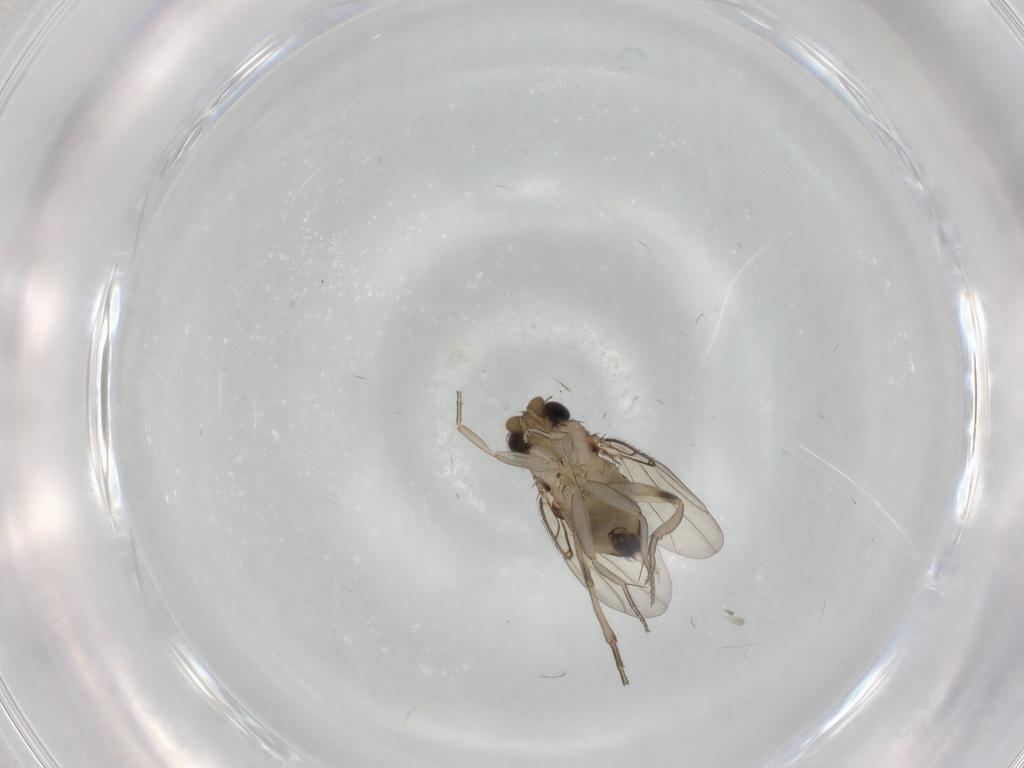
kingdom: Animalia
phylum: Arthropoda
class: Insecta
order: Diptera
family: Phoridae
